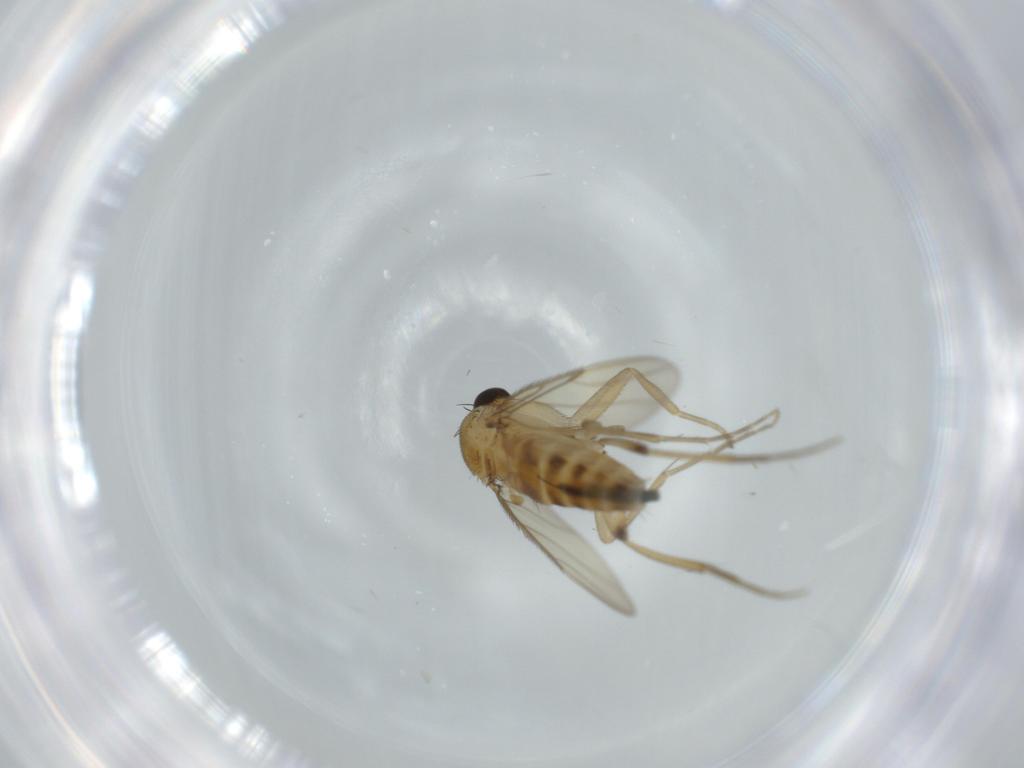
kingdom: Animalia
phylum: Arthropoda
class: Insecta
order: Diptera
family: Phoridae
